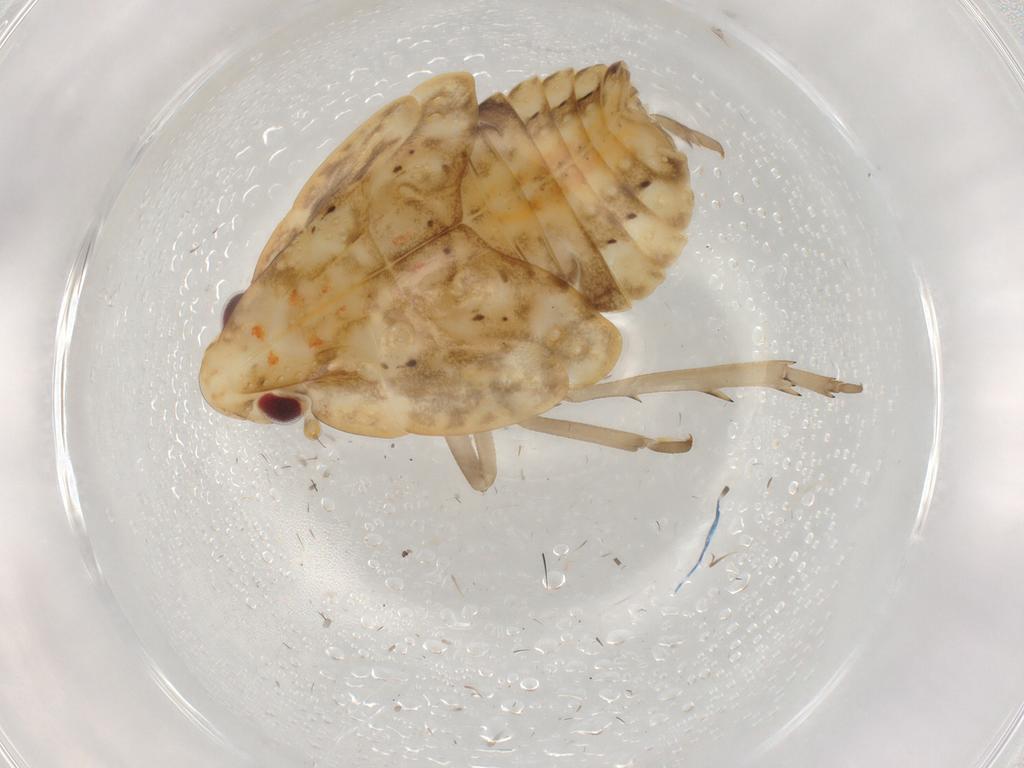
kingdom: Animalia
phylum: Arthropoda
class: Insecta
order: Hemiptera
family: Flatidae
